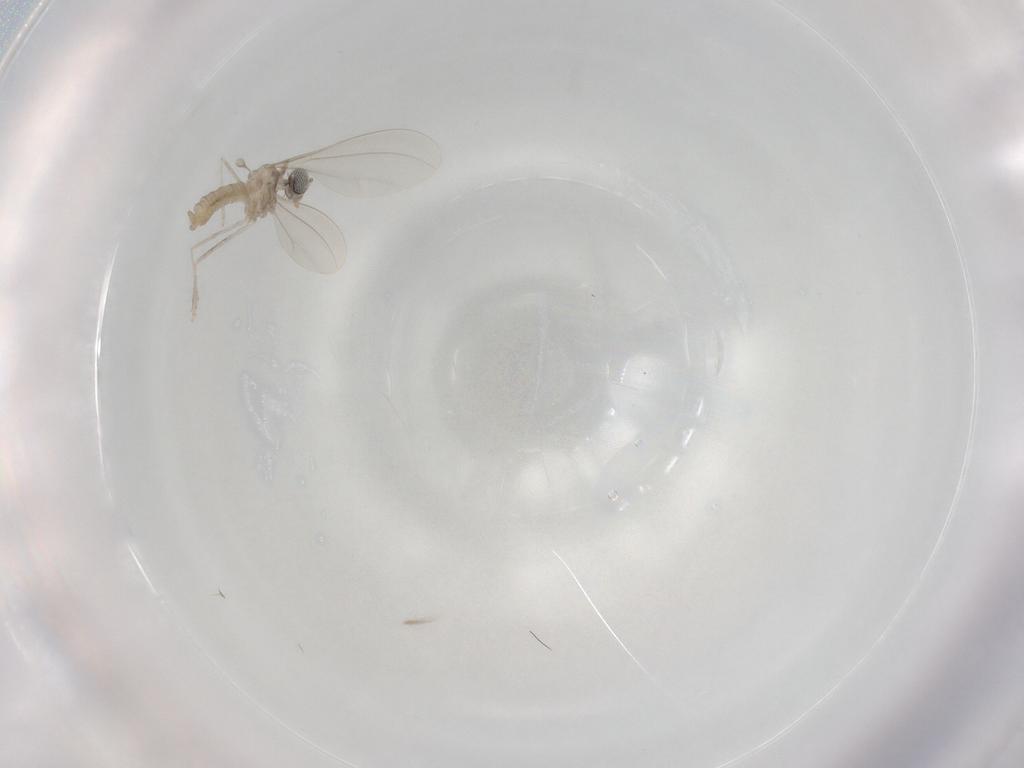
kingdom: Animalia
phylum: Arthropoda
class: Insecta
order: Diptera
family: Cecidomyiidae
